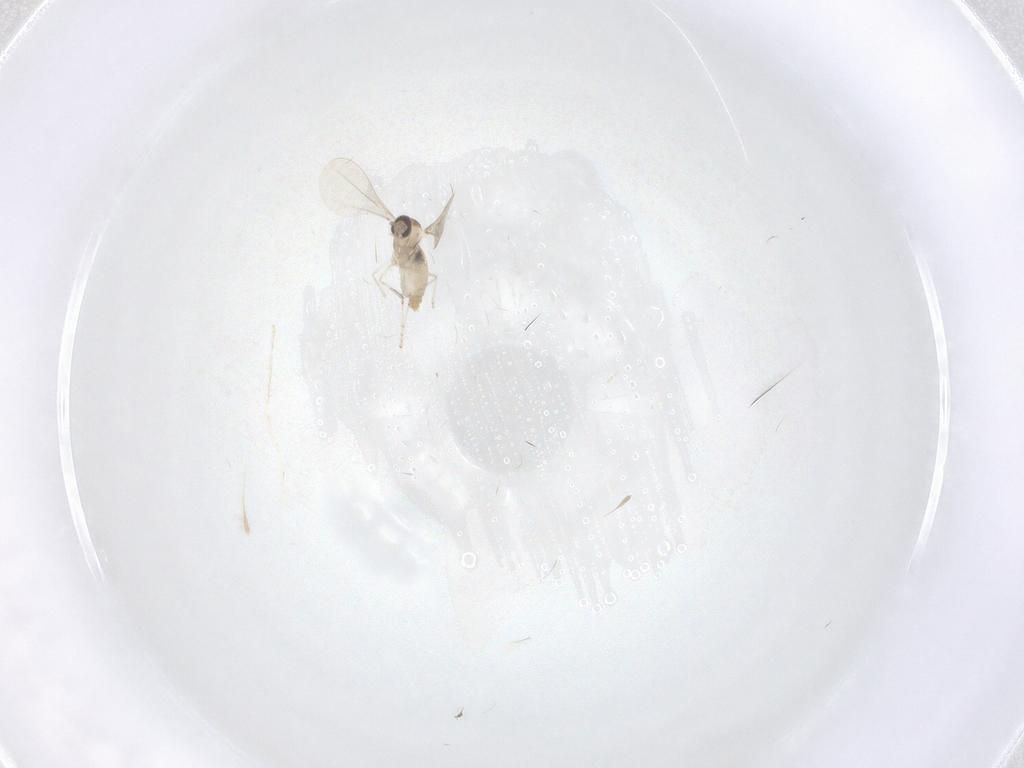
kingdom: Animalia
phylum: Arthropoda
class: Insecta
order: Diptera
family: Cecidomyiidae
